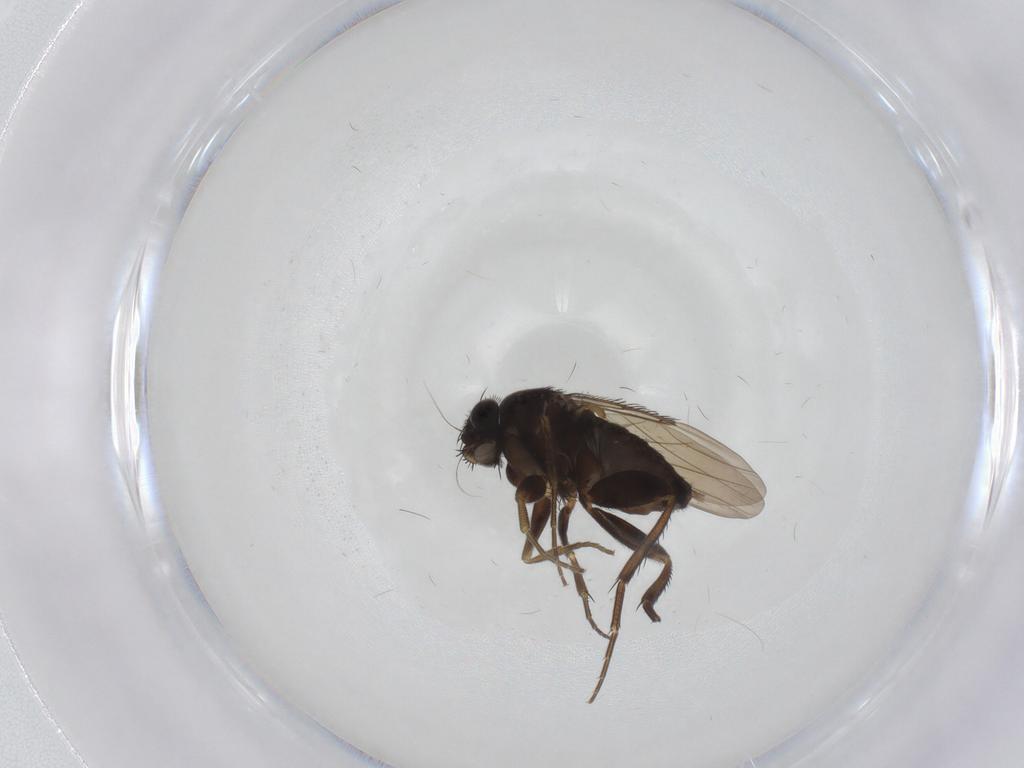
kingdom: Animalia
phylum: Arthropoda
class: Insecta
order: Diptera
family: Phoridae
